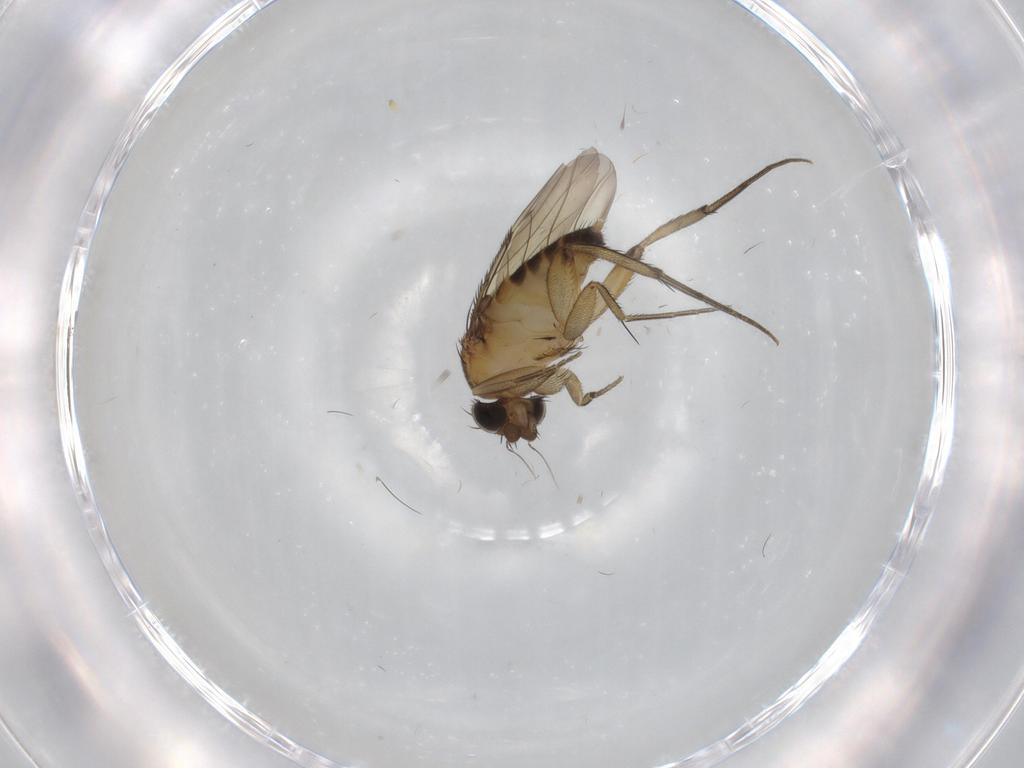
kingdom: Animalia
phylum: Arthropoda
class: Insecta
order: Diptera
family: Phoridae
